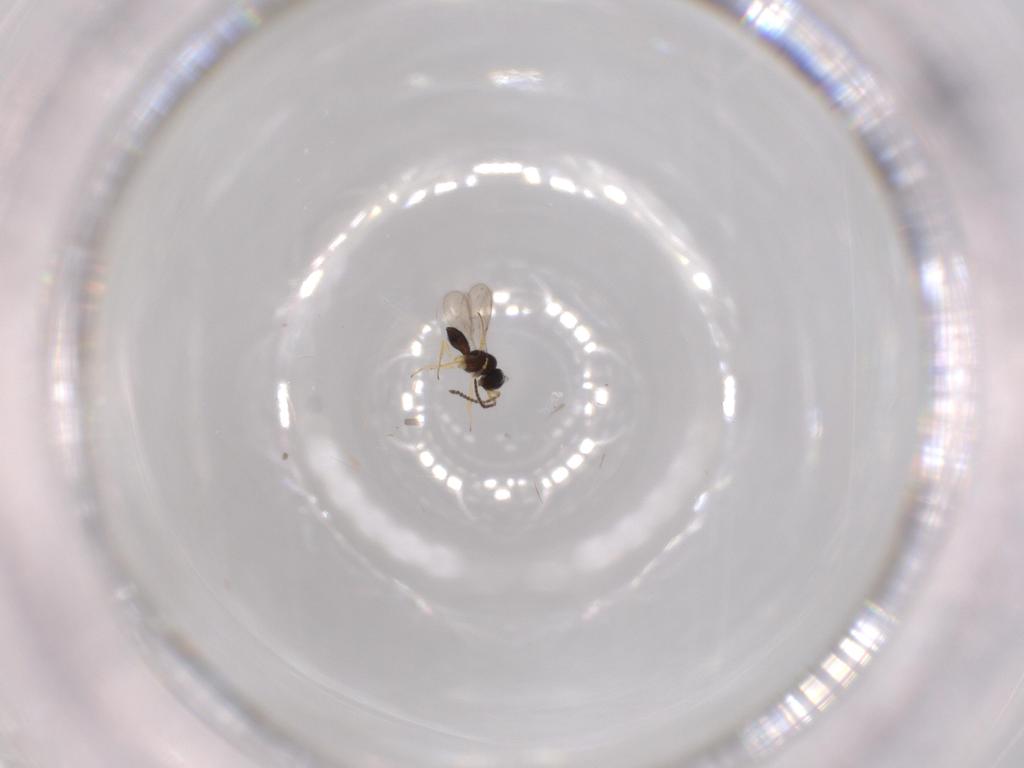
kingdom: Animalia
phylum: Arthropoda
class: Insecta
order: Hymenoptera
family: Scelionidae
